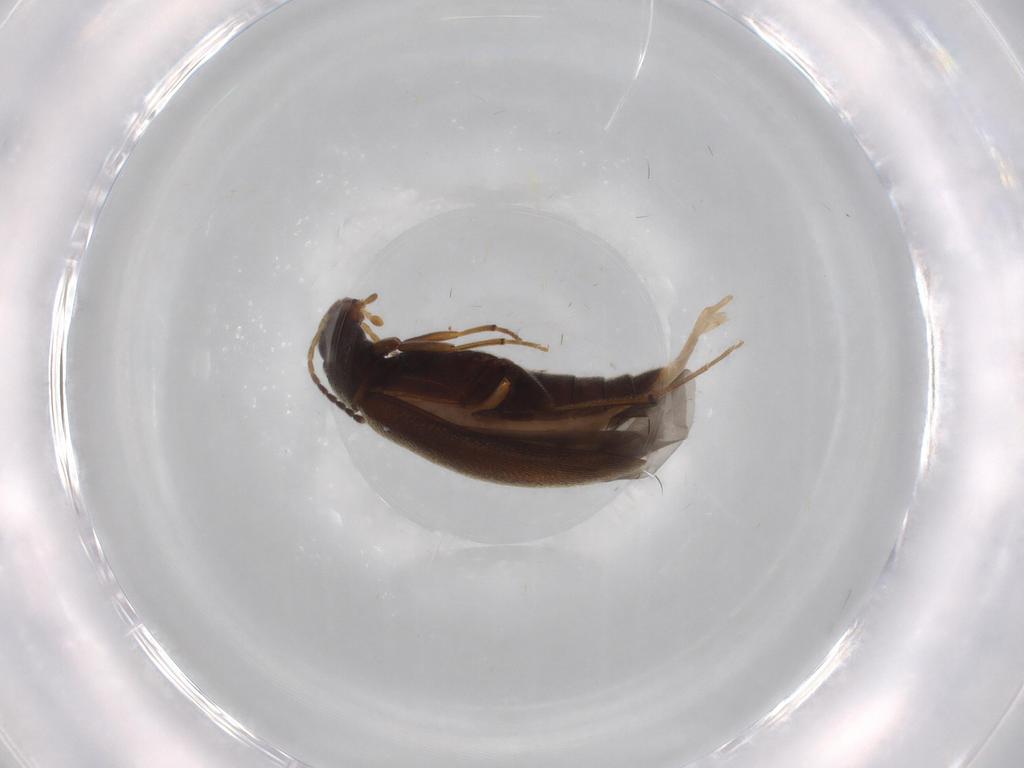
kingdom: Animalia
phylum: Arthropoda
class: Insecta
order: Coleoptera
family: Melandryidae
